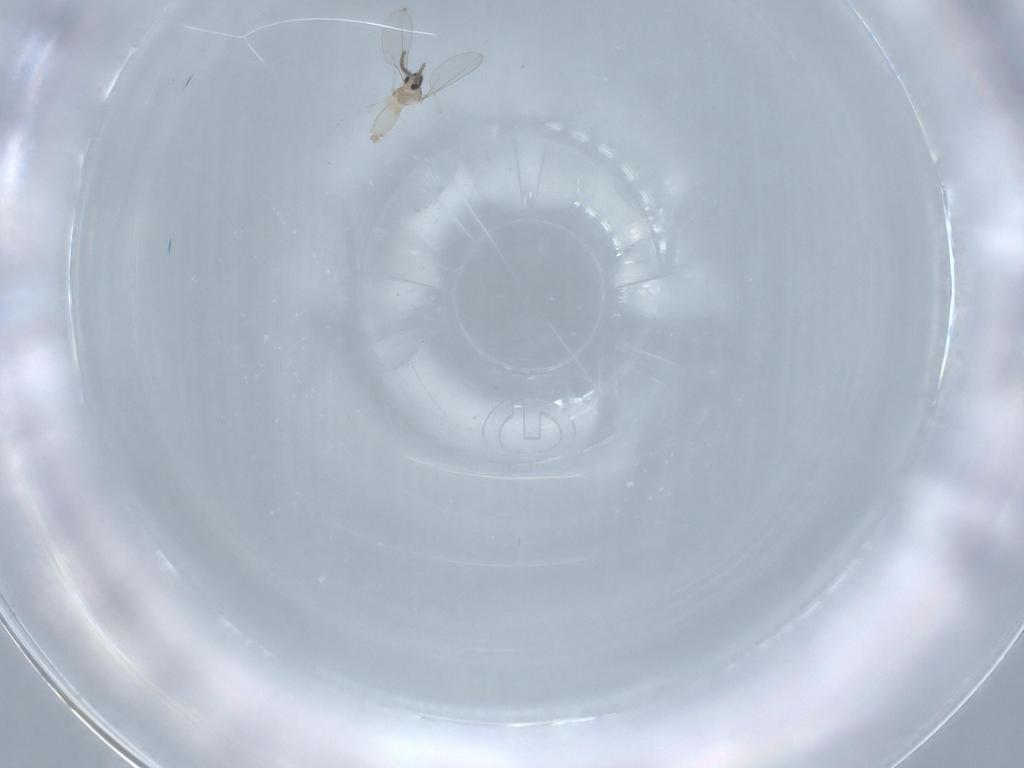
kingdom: Animalia
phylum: Arthropoda
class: Insecta
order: Diptera
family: Cecidomyiidae
